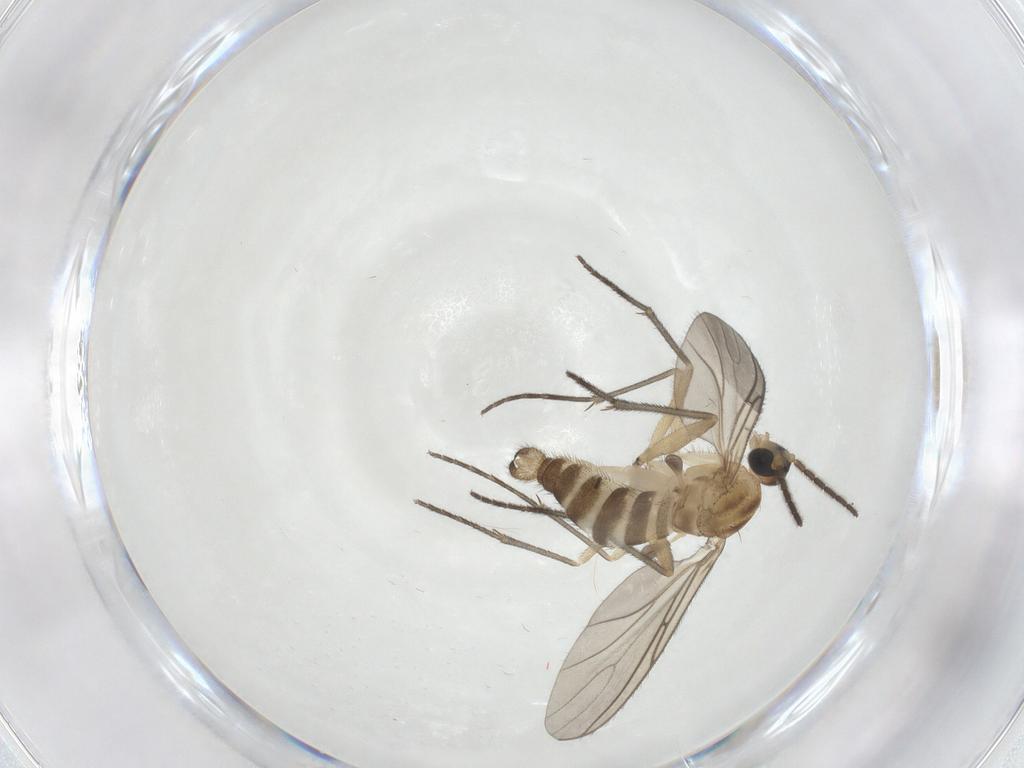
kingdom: Animalia
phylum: Arthropoda
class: Insecta
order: Diptera
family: Sciaridae
